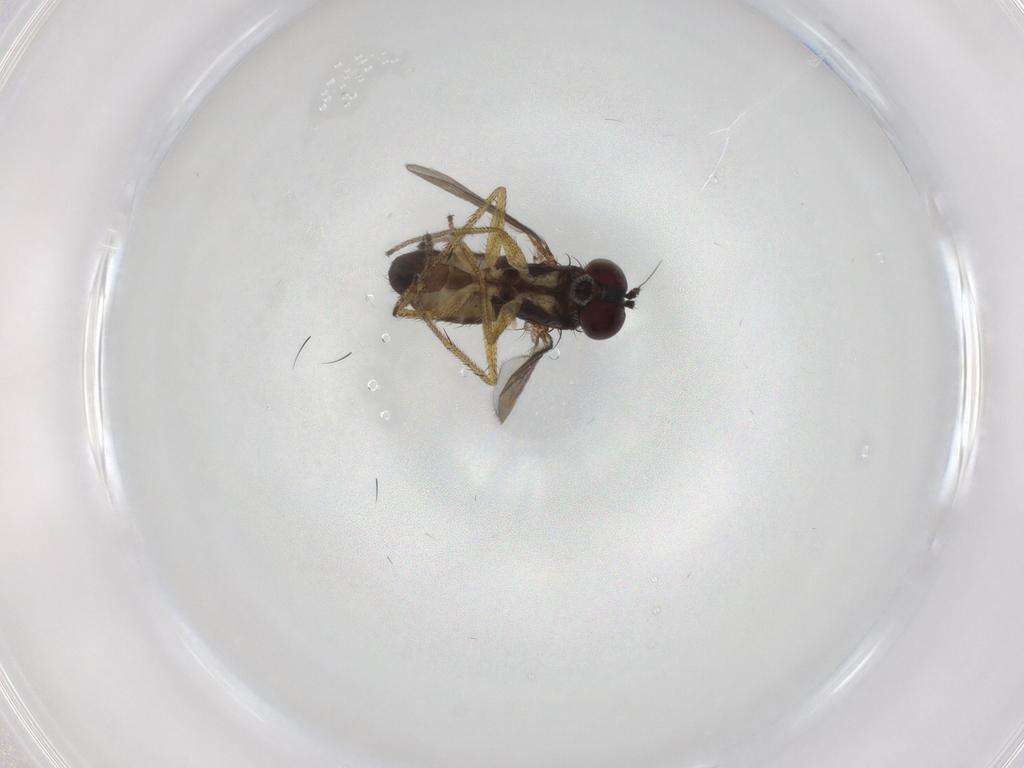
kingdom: Animalia
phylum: Arthropoda
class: Insecta
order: Diptera
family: Dolichopodidae
